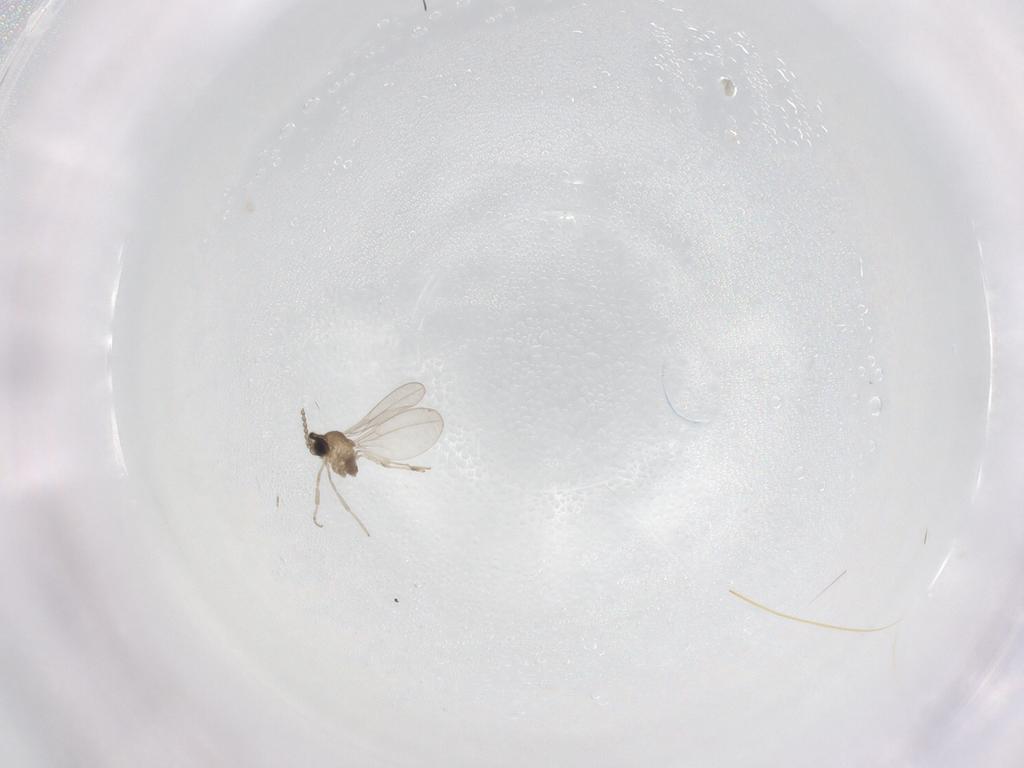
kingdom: Animalia
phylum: Arthropoda
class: Insecta
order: Diptera
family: Cecidomyiidae
